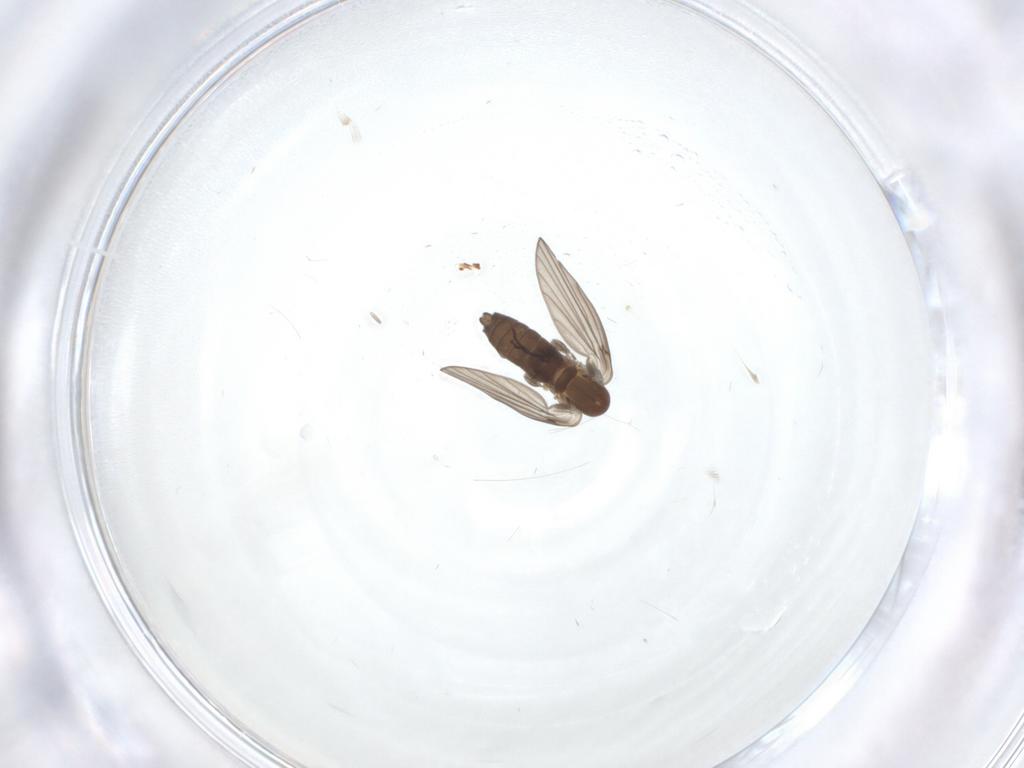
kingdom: Animalia
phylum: Arthropoda
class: Insecta
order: Diptera
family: Psychodidae
